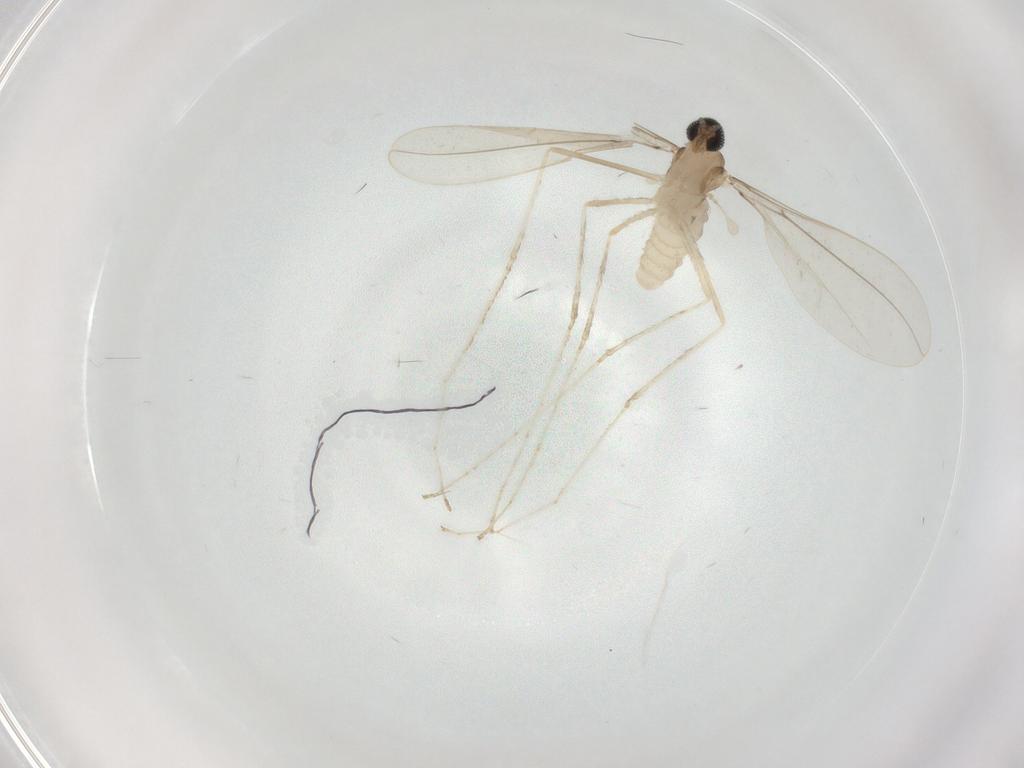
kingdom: Animalia
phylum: Arthropoda
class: Insecta
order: Diptera
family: Cecidomyiidae
